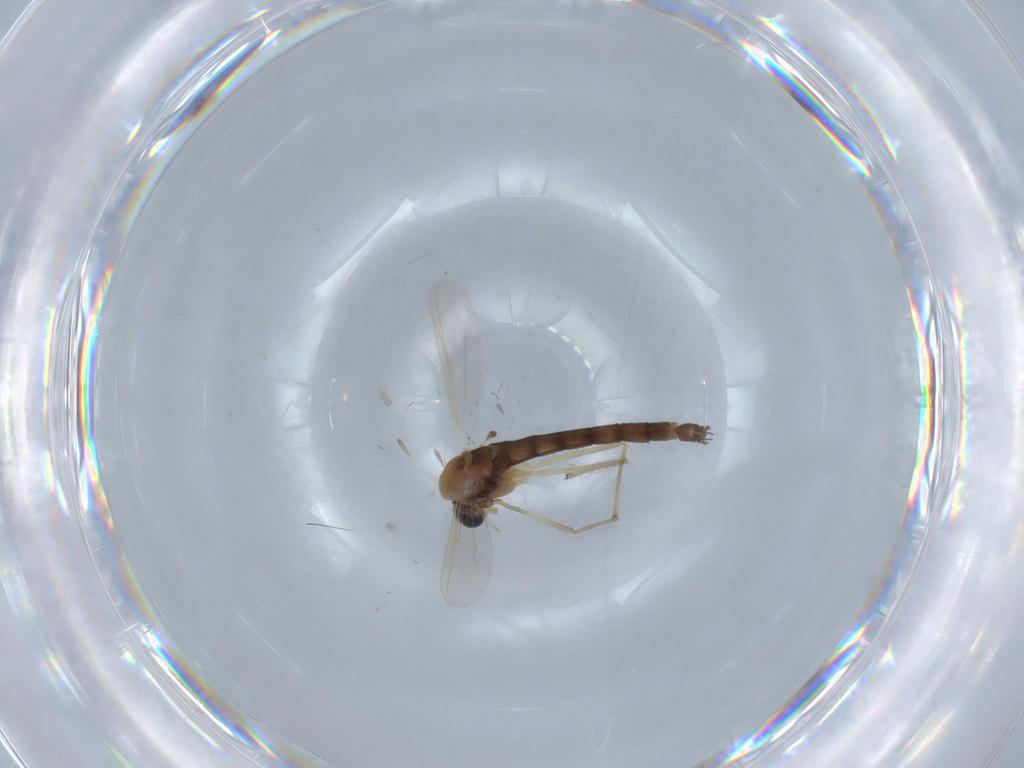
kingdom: Animalia
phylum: Arthropoda
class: Insecta
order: Diptera
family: Chironomidae
